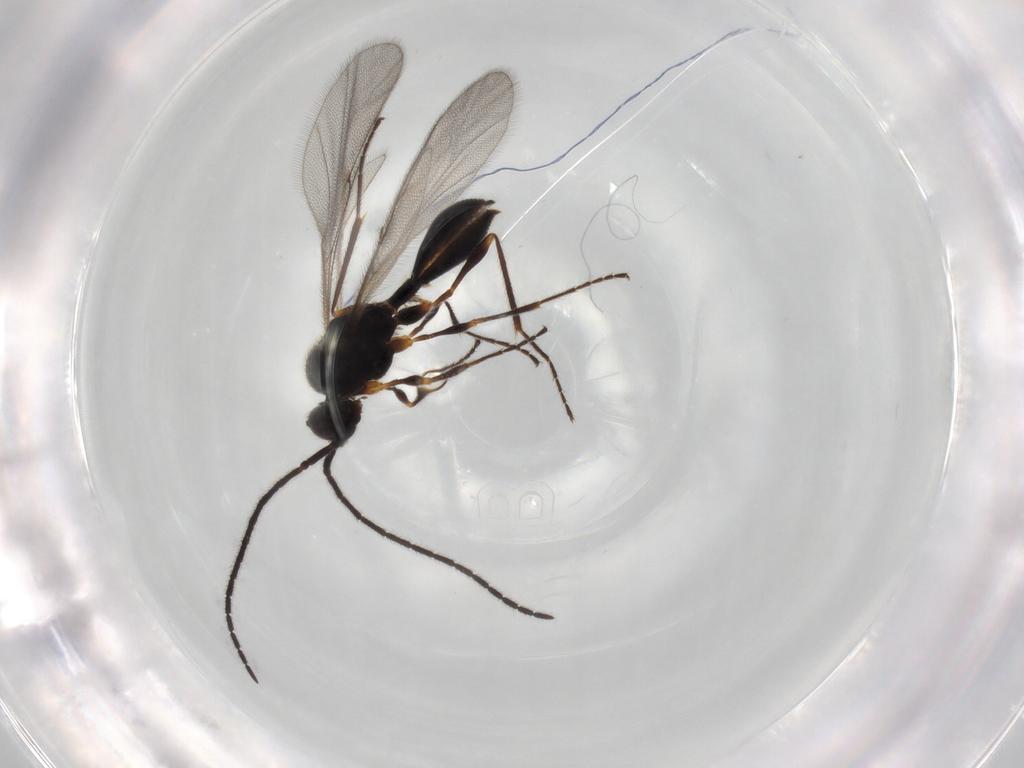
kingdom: Animalia
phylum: Arthropoda
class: Insecta
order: Hymenoptera
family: Diapriidae
